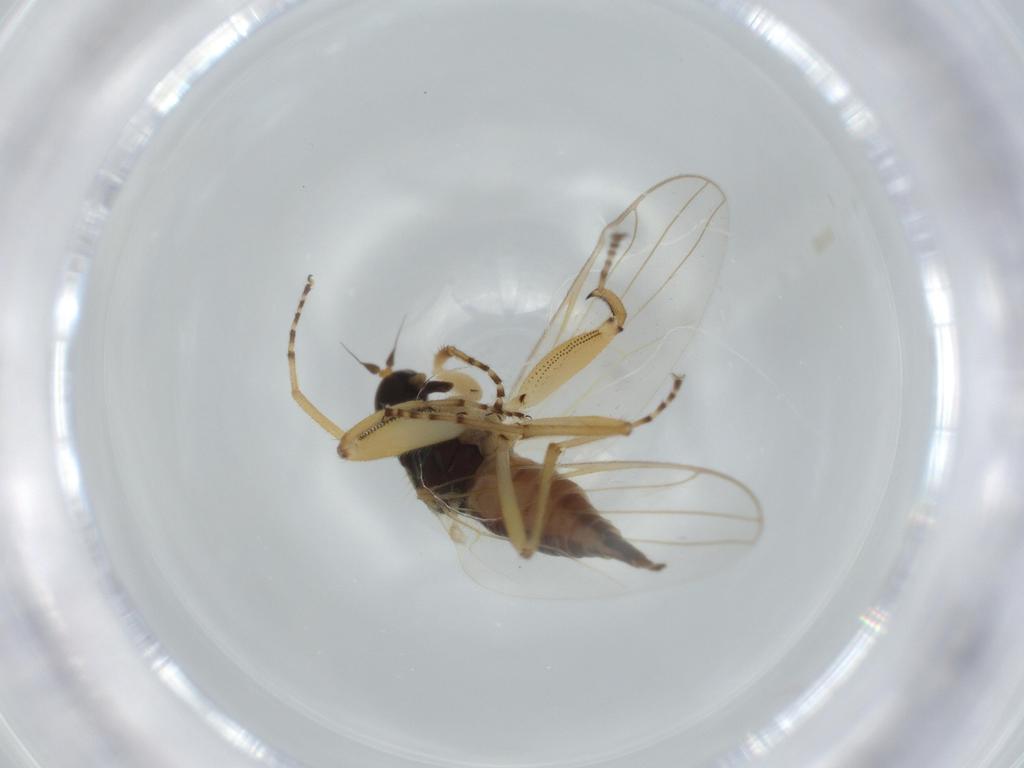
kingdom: Animalia
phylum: Arthropoda
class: Insecta
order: Diptera
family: Hybotidae
